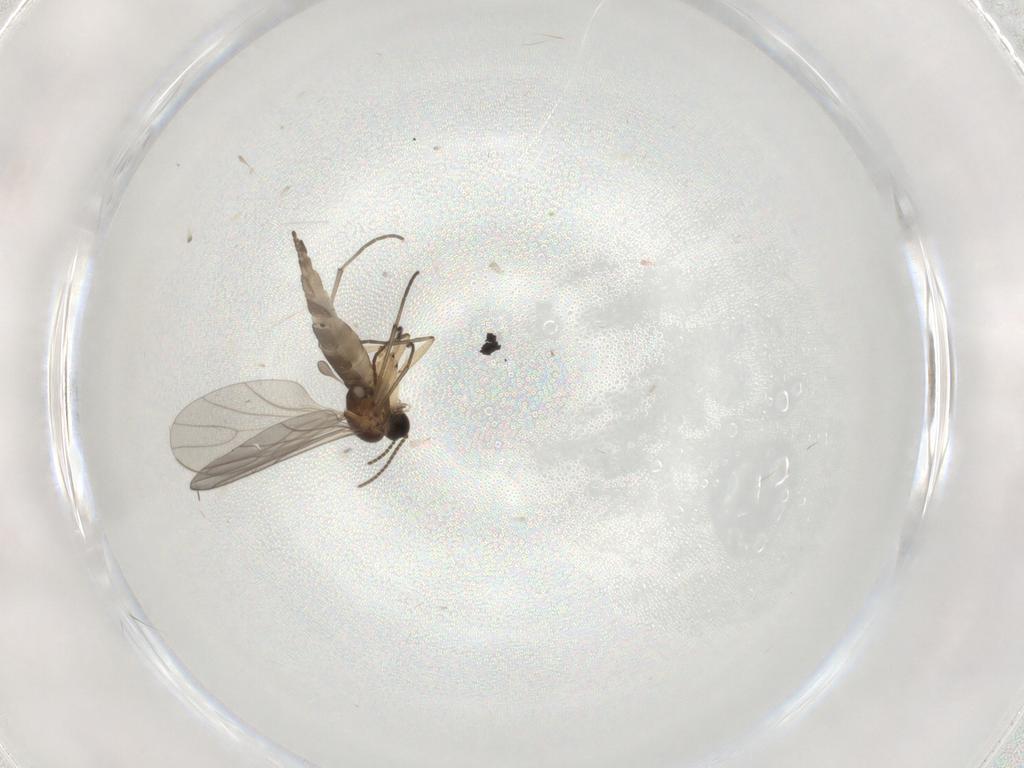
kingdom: Animalia
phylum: Arthropoda
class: Insecta
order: Diptera
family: Sciaridae
